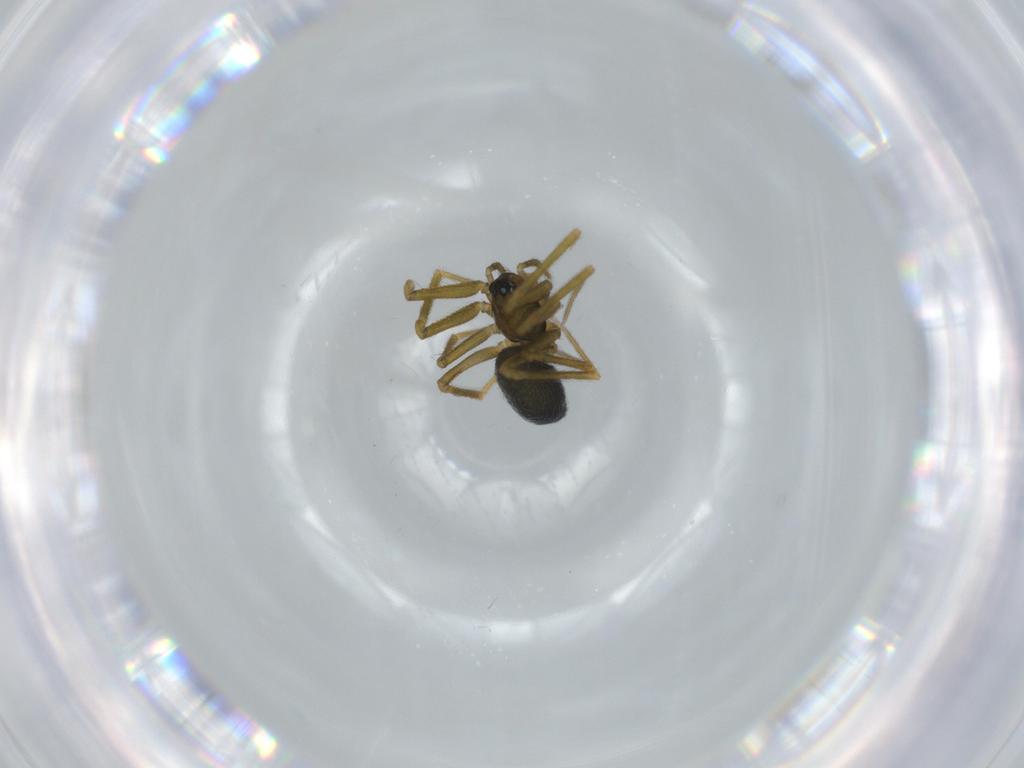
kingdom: Animalia
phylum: Arthropoda
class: Arachnida
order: Araneae
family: Linyphiidae
